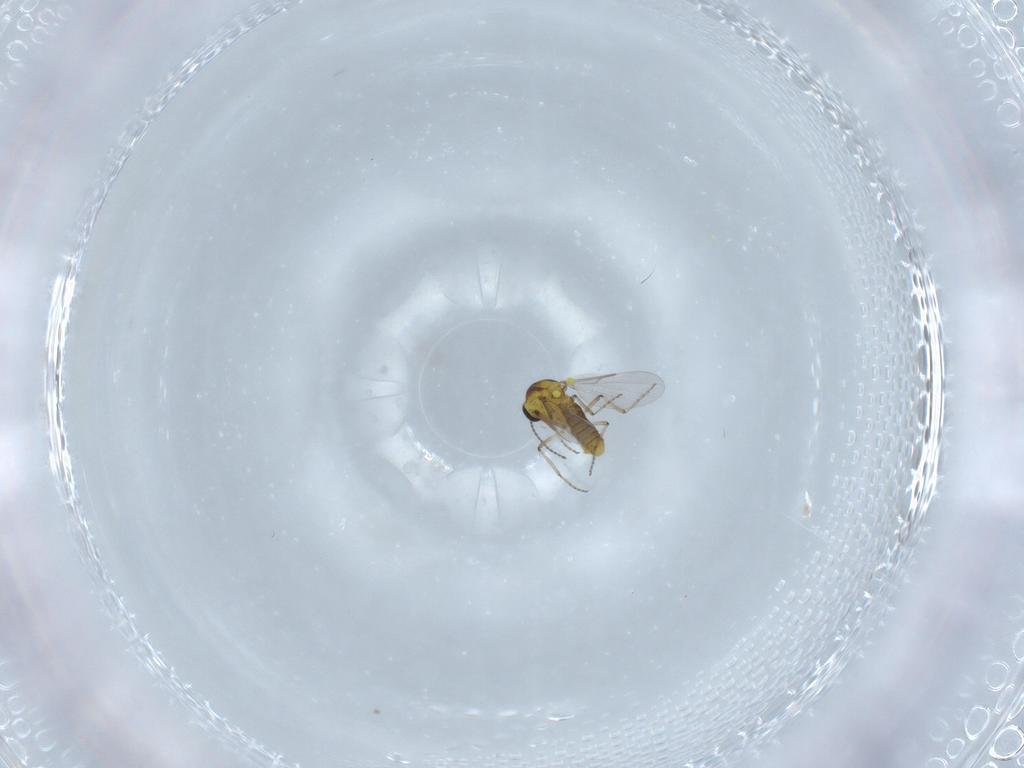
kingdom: Animalia
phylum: Arthropoda
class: Insecta
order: Diptera
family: Ceratopogonidae
